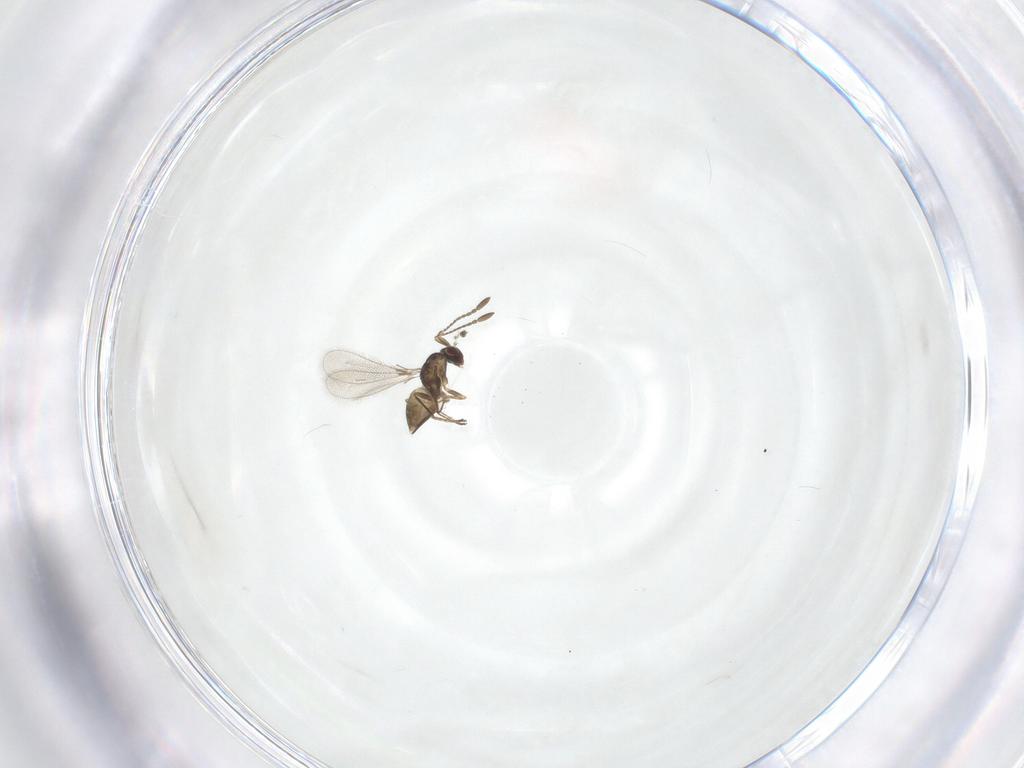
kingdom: Animalia
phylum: Arthropoda
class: Insecta
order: Hymenoptera
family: Mymaridae
